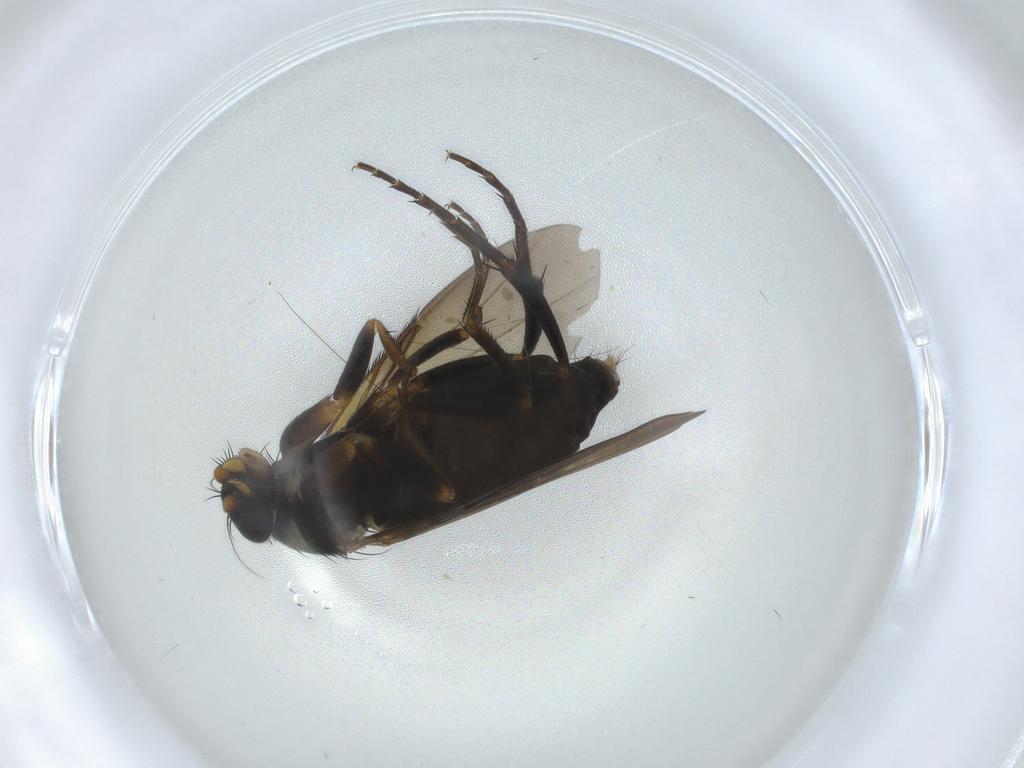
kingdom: Animalia
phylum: Arthropoda
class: Insecta
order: Diptera
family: Phoridae
